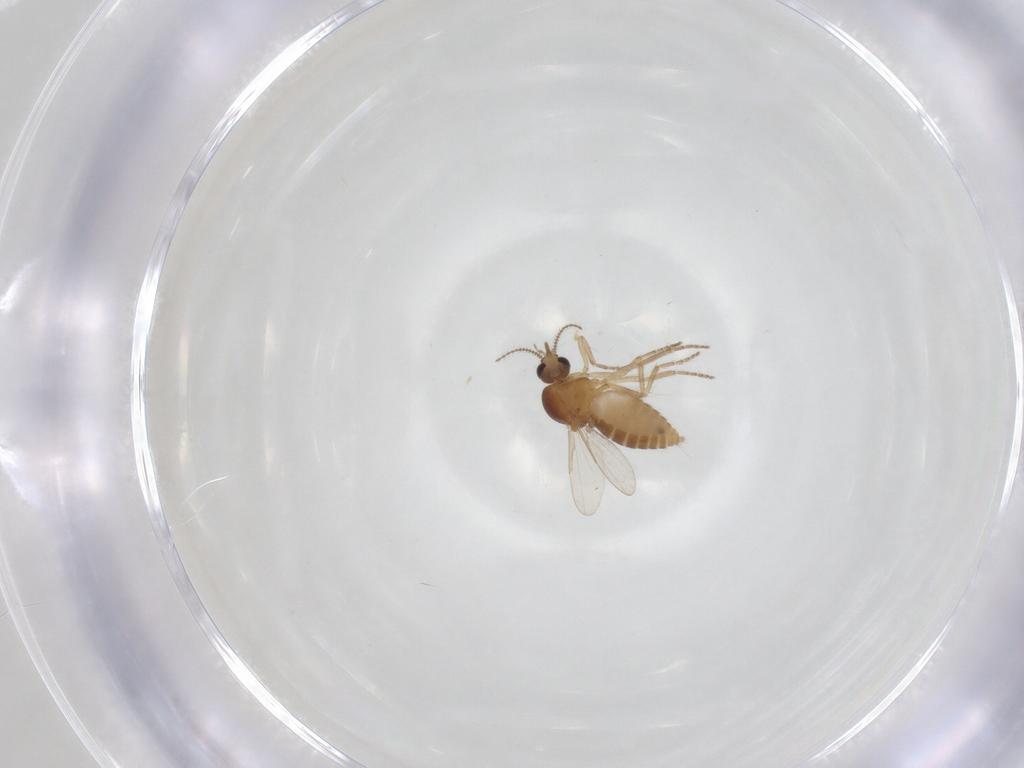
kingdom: Animalia
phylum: Arthropoda
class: Insecta
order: Diptera
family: Ceratopogonidae
